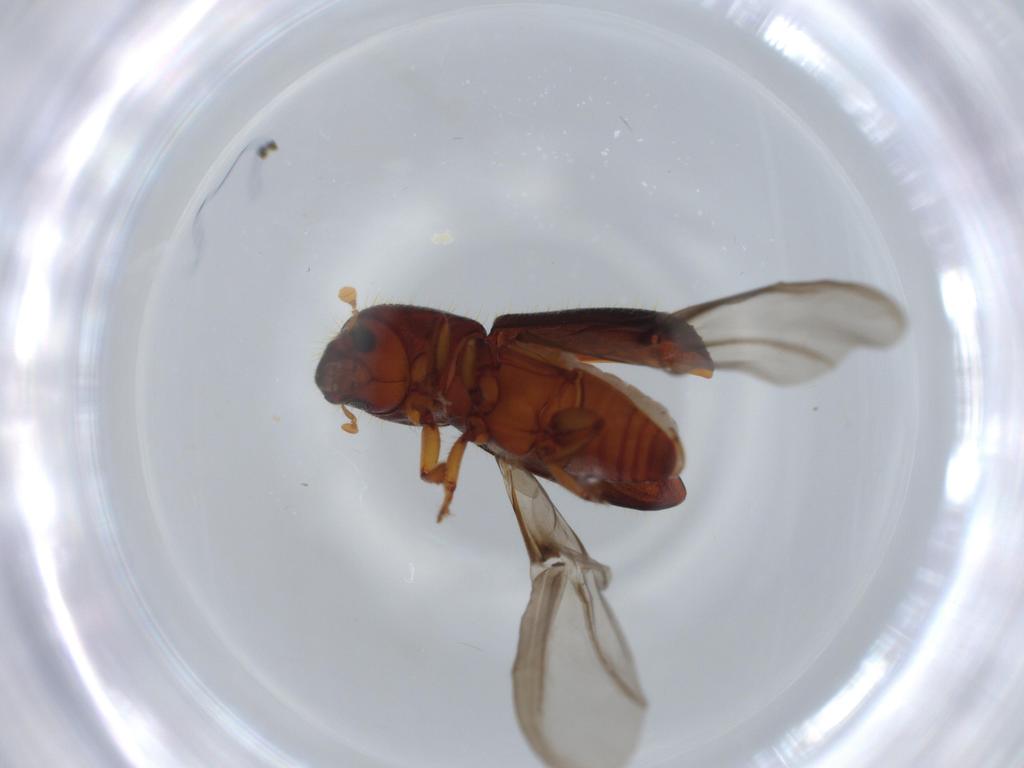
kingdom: Animalia
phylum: Arthropoda
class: Insecta
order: Coleoptera
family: Curculionidae
